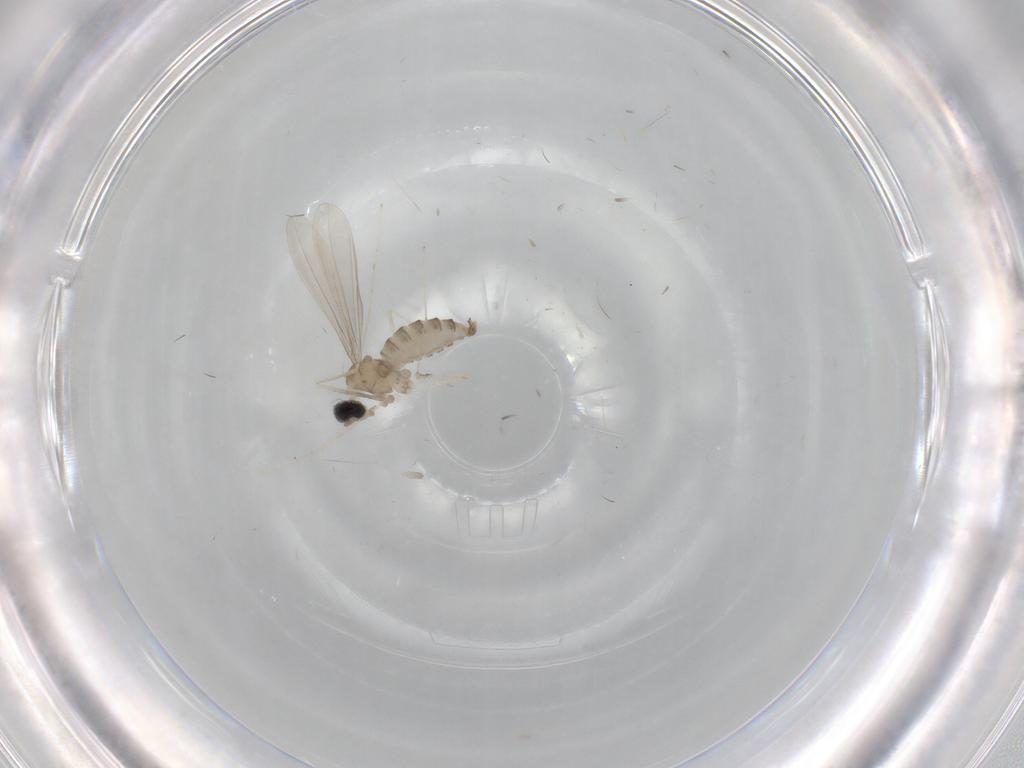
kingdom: Animalia
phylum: Arthropoda
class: Insecta
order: Diptera
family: Cecidomyiidae
